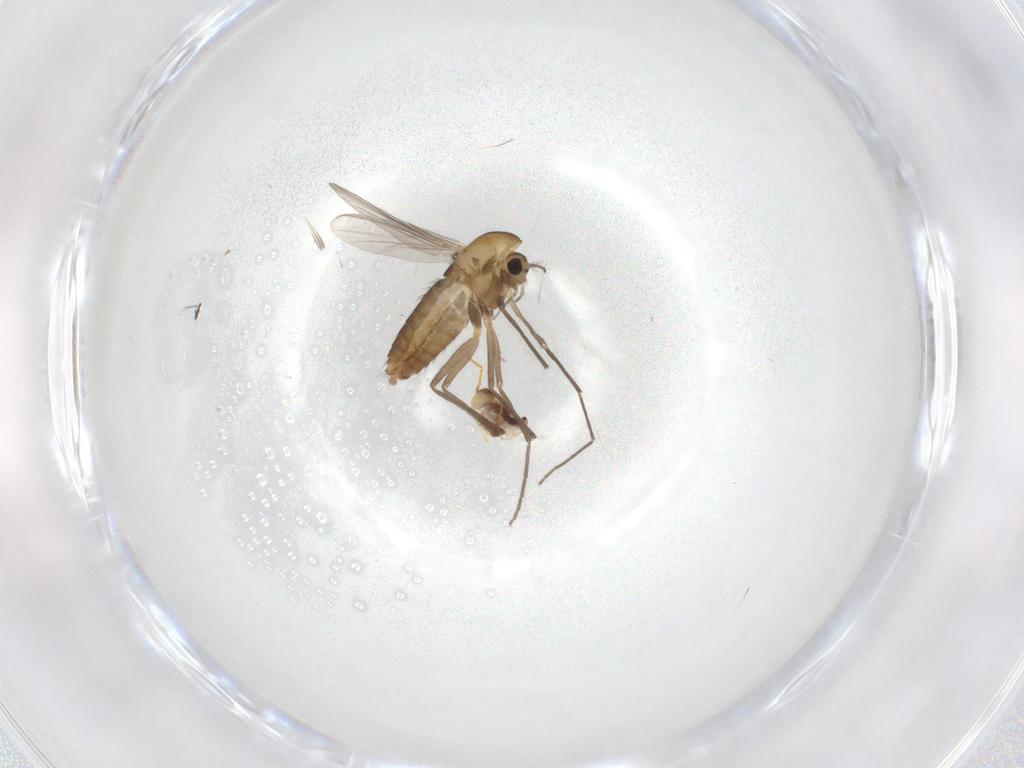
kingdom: Animalia
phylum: Arthropoda
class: Insecta
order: Diptera
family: Chironomidae
